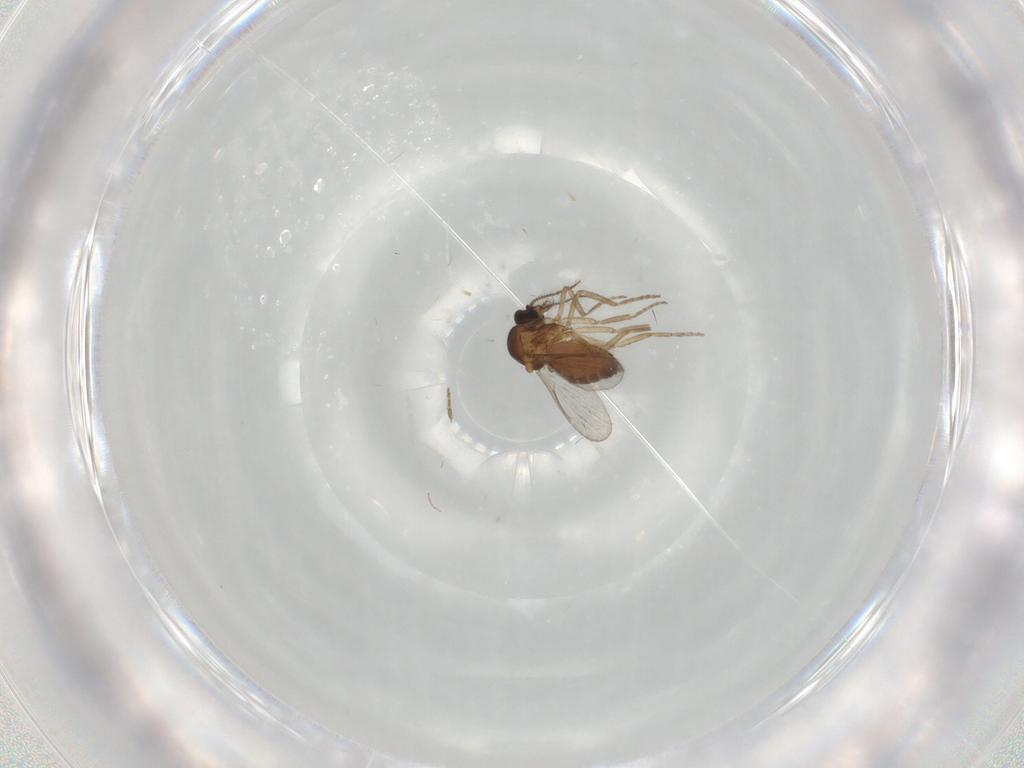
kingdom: Animalia
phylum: Arthropoda
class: Insecta
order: Diptera
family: Dolichopodidae
